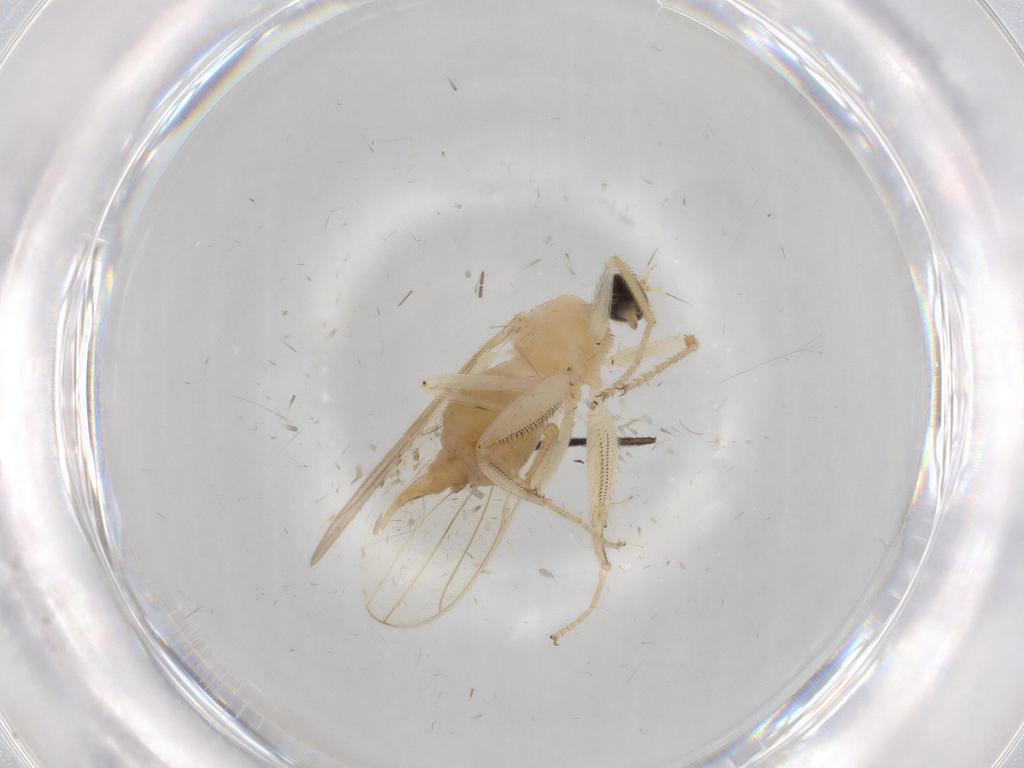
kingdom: Animalia
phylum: Arthropoda
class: Insecta
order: Diptera
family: Hybotidae
